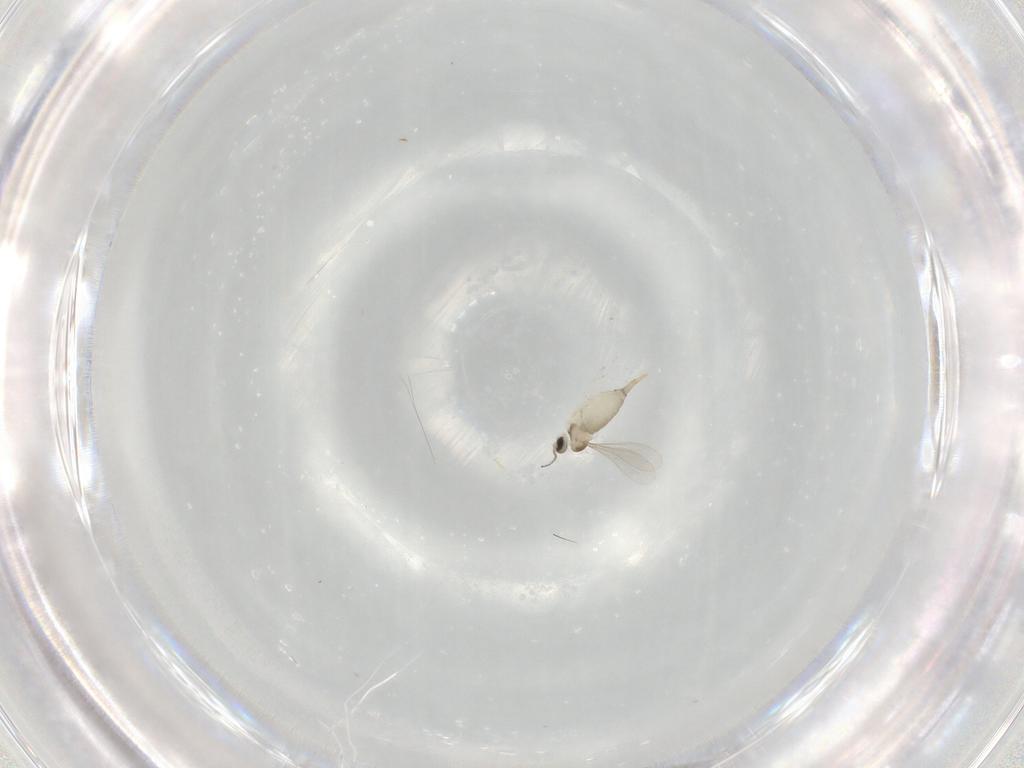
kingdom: Animalia
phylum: Arthropoda
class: Insecta
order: Diptera
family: Cecidomyiidae
